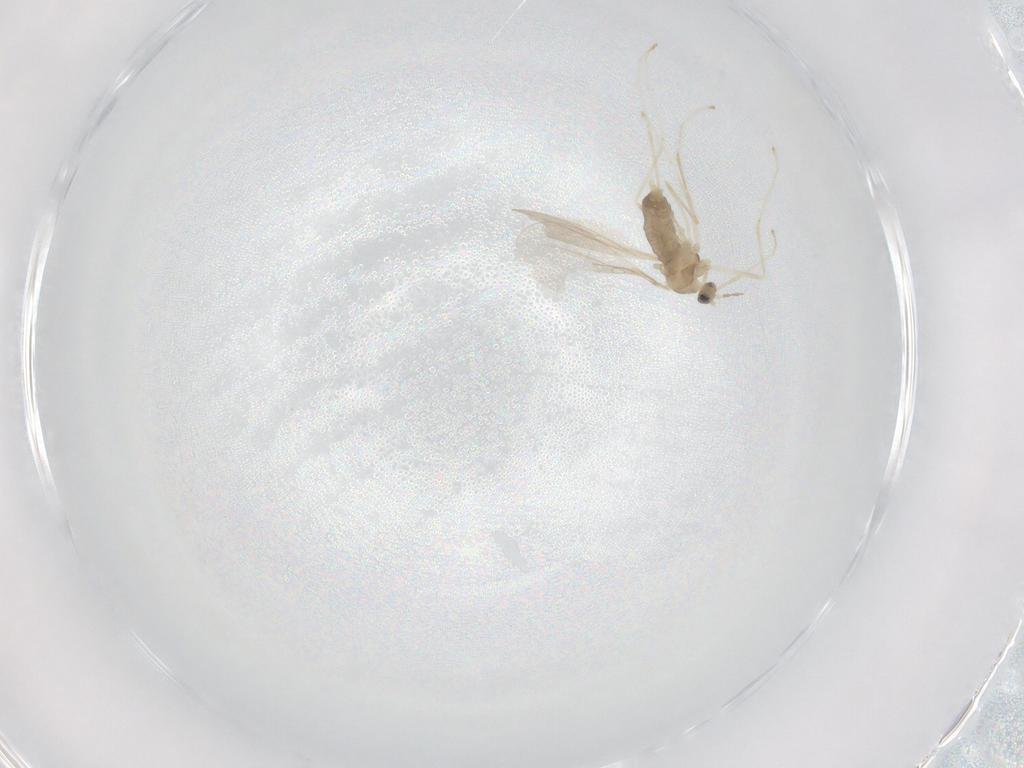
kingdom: Animalia
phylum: Arthropoda
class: Insecta
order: Diptera
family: Cecidomyiidae
